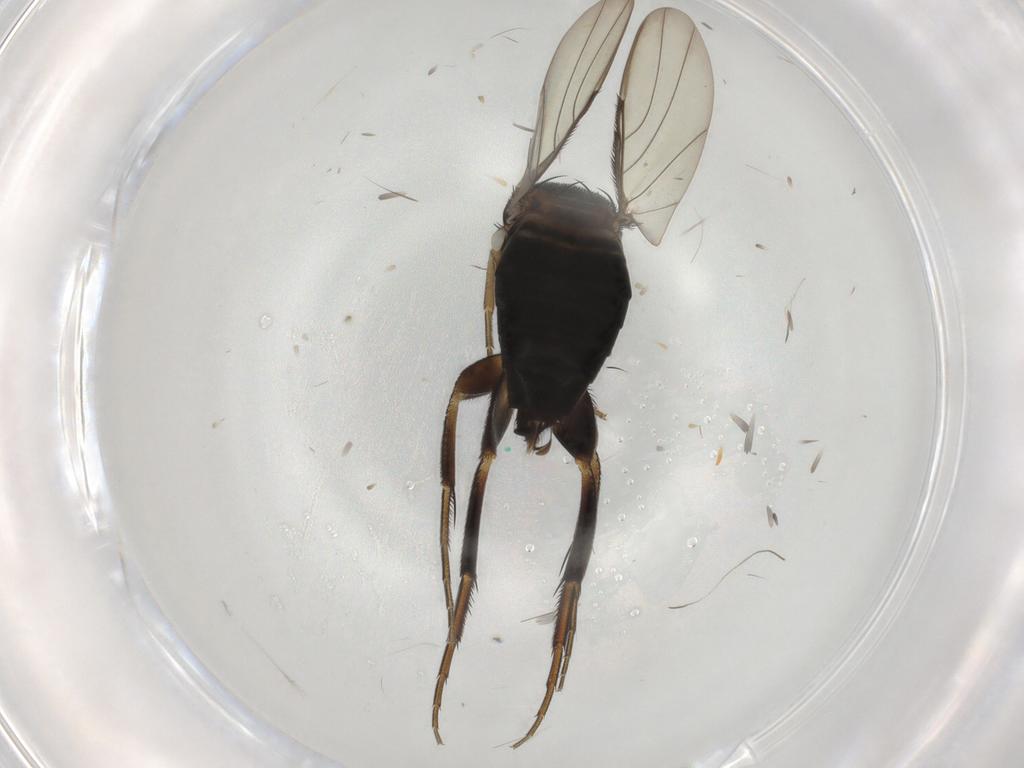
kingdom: Animalia
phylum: Arthropoda
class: Insecta
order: Diptera
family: Phoridae
